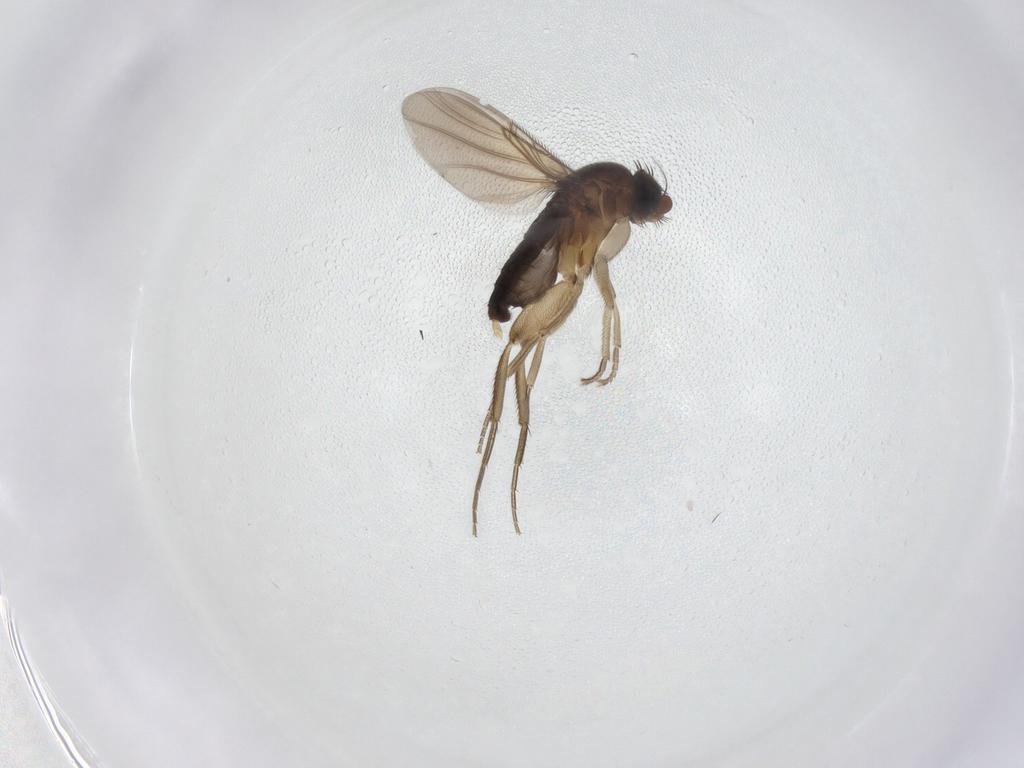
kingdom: Animalia
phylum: Arthropoda
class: Insecta
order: Diptera
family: Phoridae
